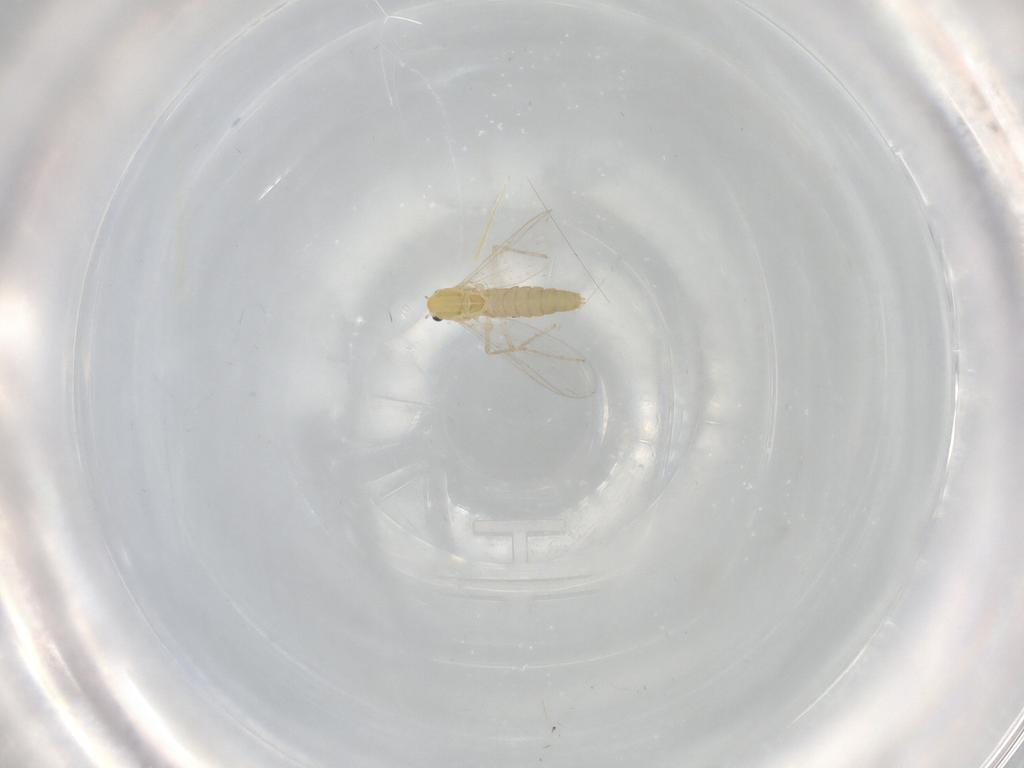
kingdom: Animalia
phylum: Arthropoda
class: Insecta
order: Diptera
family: Chironomidae
